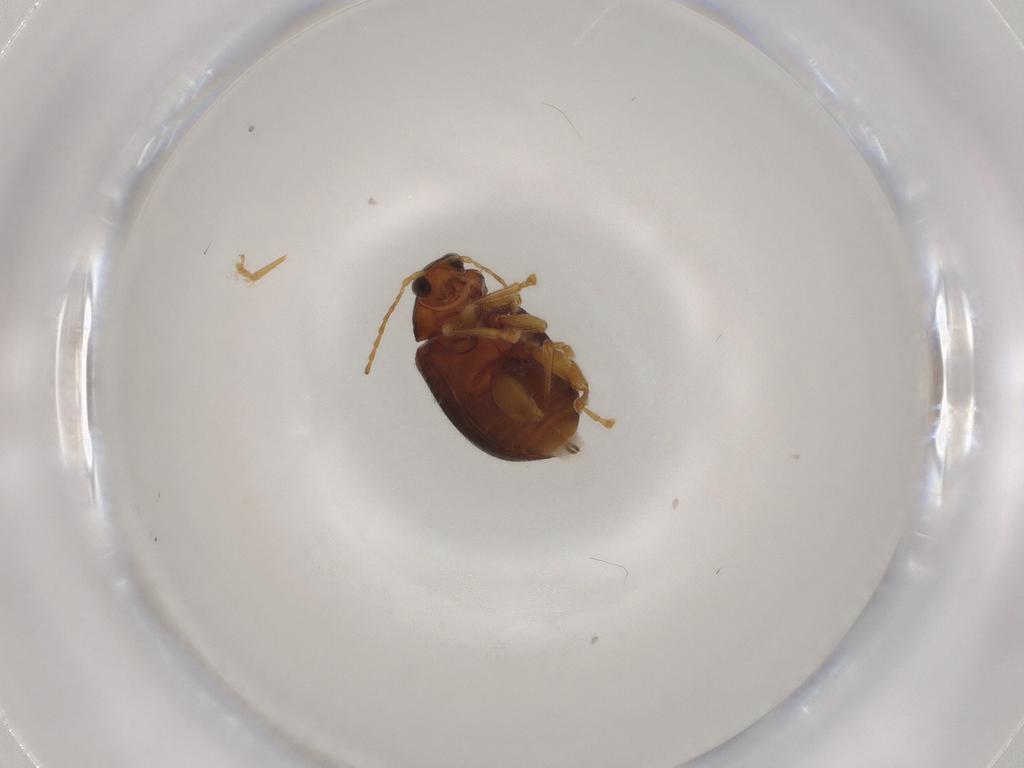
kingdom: Animalia
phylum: Arthropoda
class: Insecta
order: Coleoptera
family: Chrysomelidae
